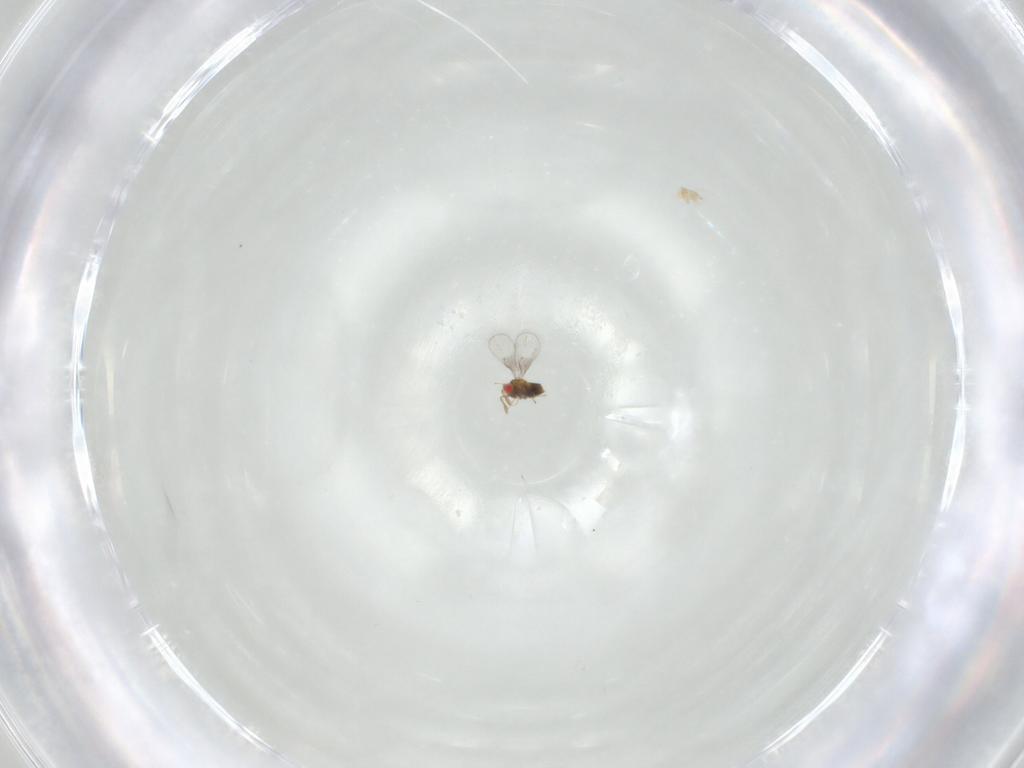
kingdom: Animalia
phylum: Arthropoda
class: Insecta
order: Hymenoptera
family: Trichogrammatidae
